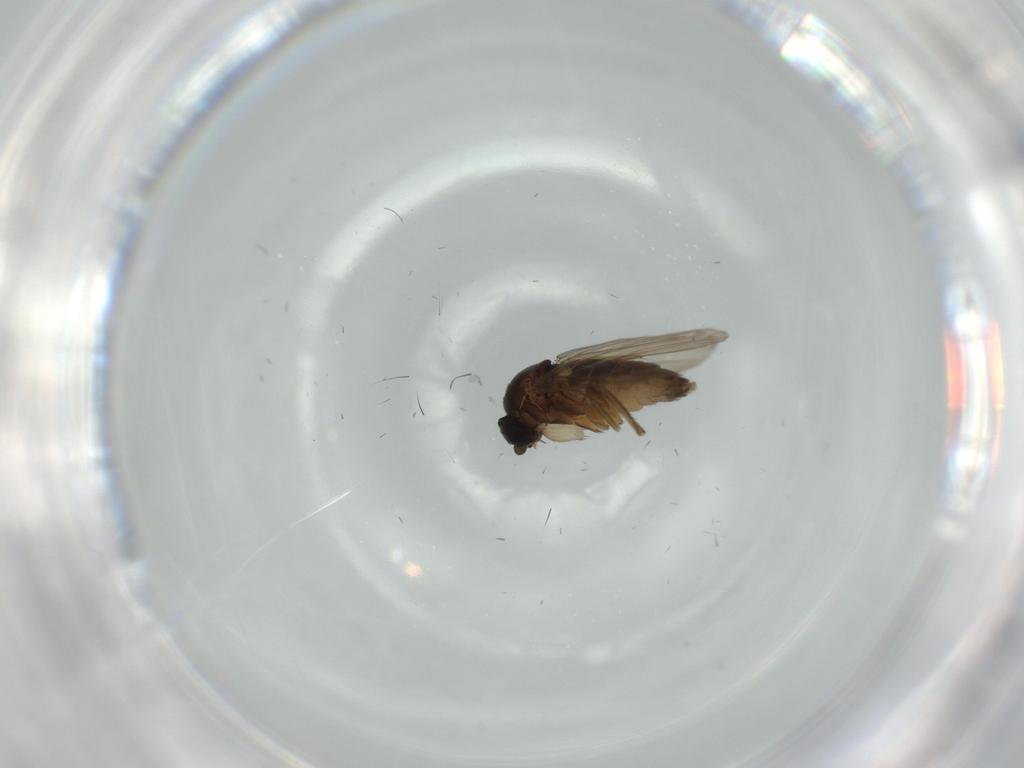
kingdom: Animalia
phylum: Arthropoda
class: Insecta
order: Diptera
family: Phoridae
